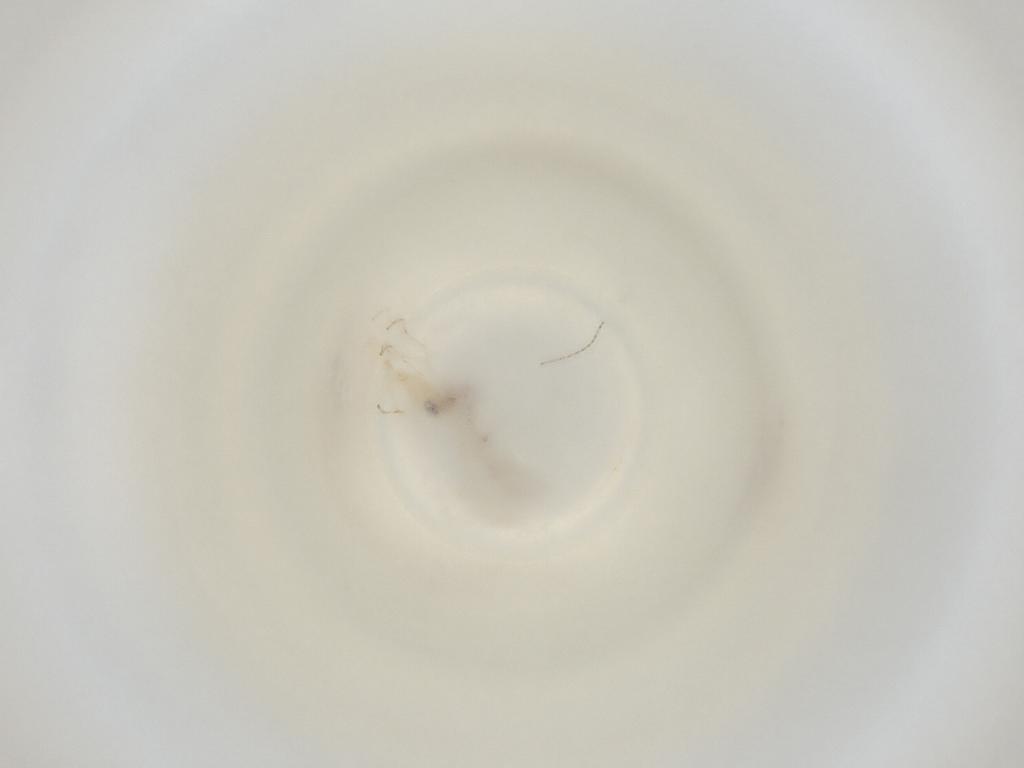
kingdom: Animalia
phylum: Arthropoda
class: Insecta
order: Diptera
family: Cecidomyiidae
